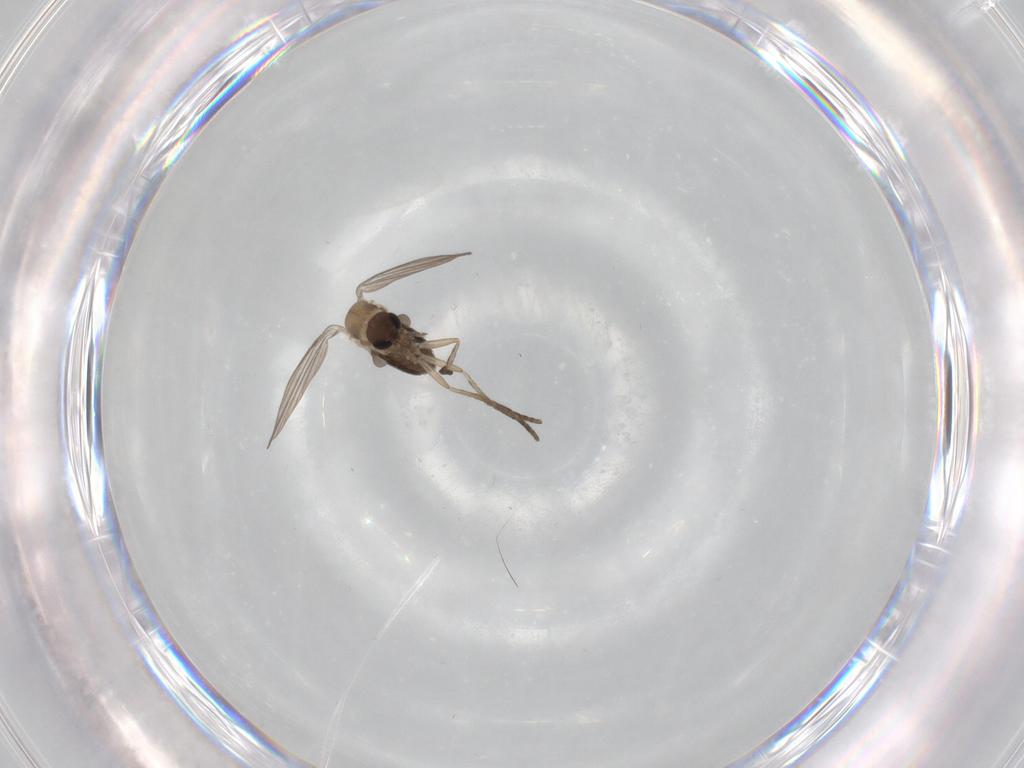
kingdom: Animalia
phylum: Arthropoda
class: Insecta
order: Diptera
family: Psychodidae
